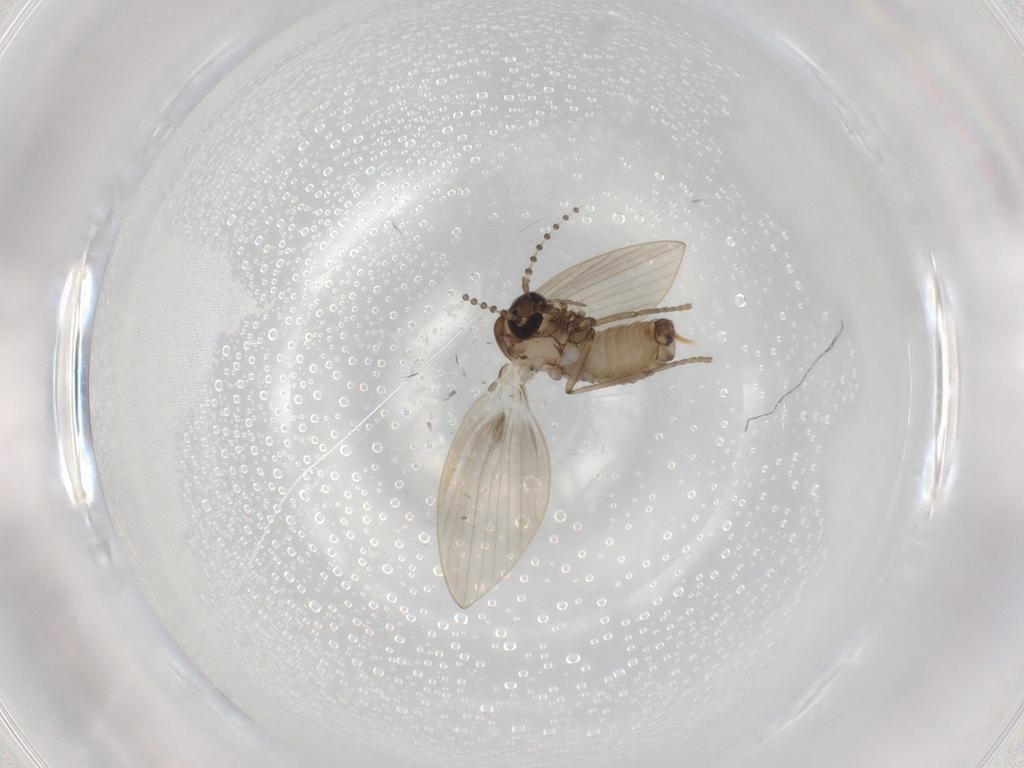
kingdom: Animalia
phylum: Arthropoda
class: Insecta
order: Diptera
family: Psychodidae
